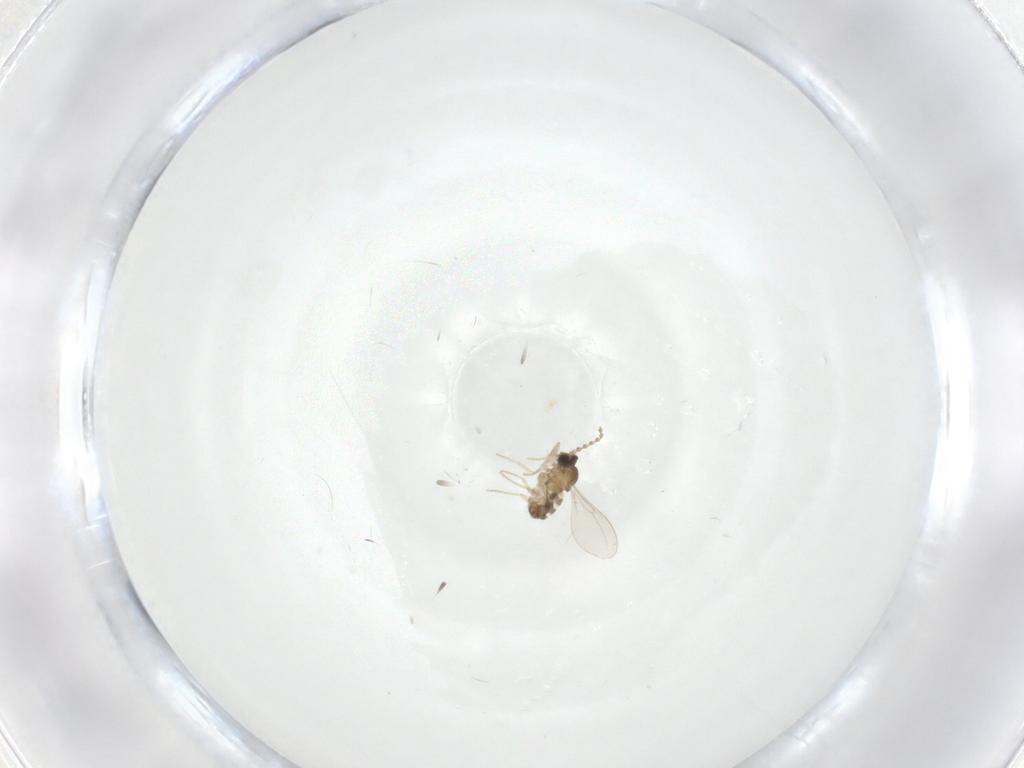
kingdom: Animalia
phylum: Arthropoda
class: Insecta
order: Diptera
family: Cecidomyiidae
